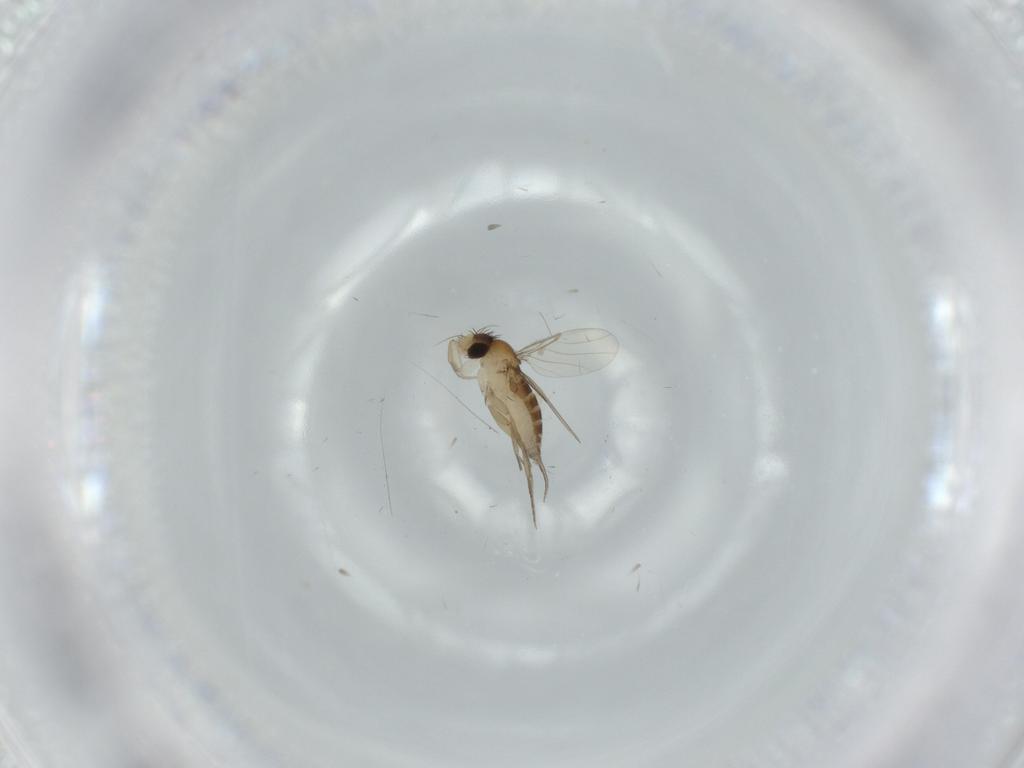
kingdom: Animalia
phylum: Arthropoda
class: Insecta
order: Diptera
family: Phoridae
